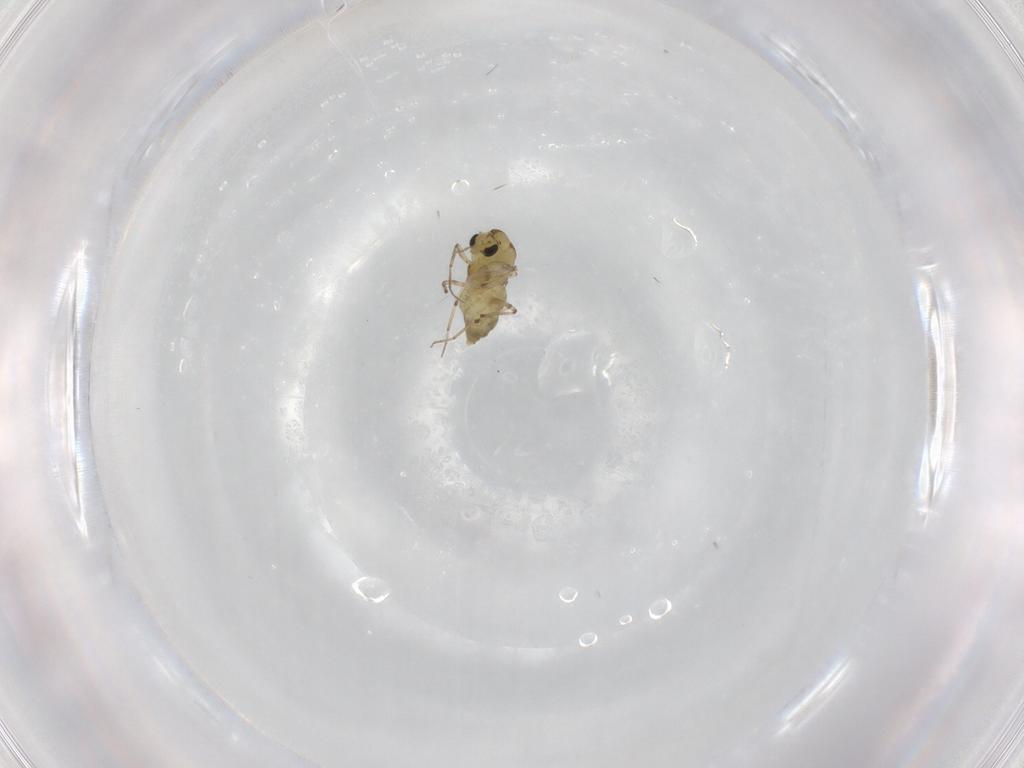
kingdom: Animalia
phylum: Arthropoda
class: Insecta
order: Diptera
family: Chironomidae
